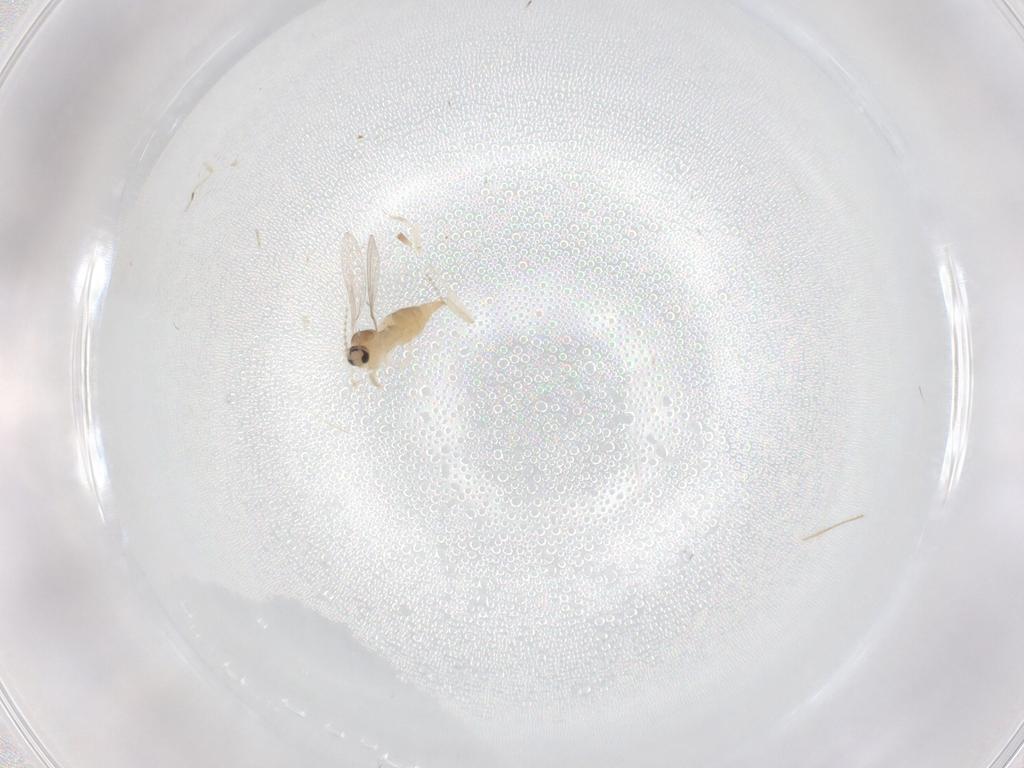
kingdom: Animalia
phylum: Arthropoda
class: Insecta
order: Diptera
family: Cecidomyiidae
